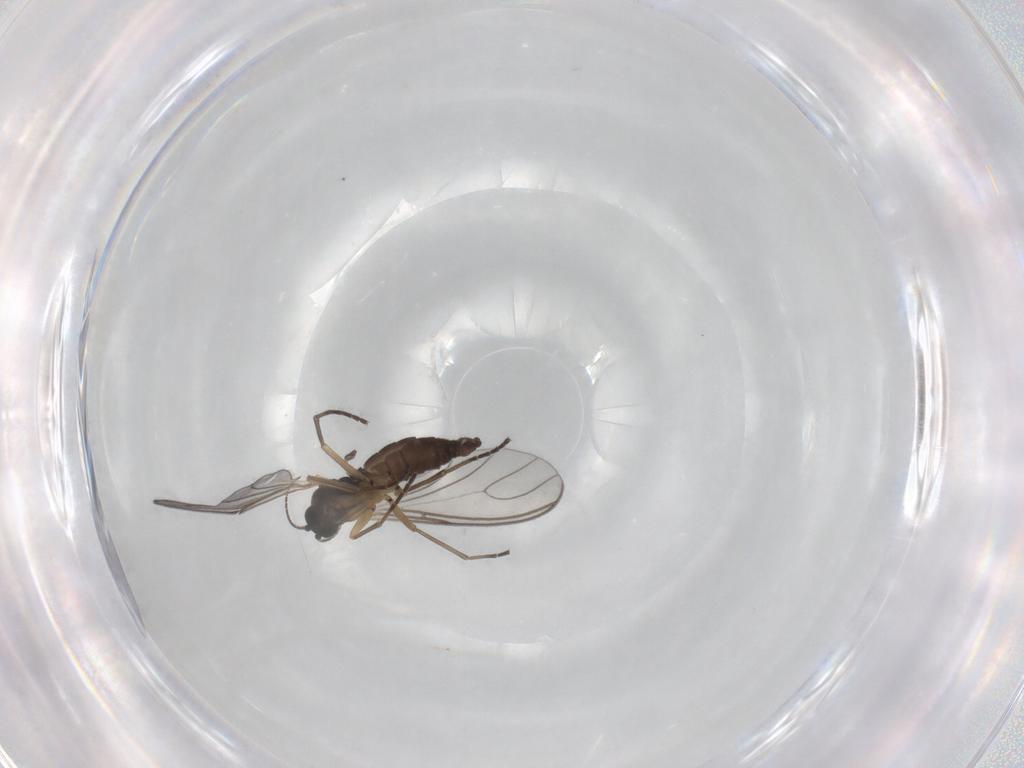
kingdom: Animalia
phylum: Arthropoda
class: Insecta
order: Diptera
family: Sciaridae
